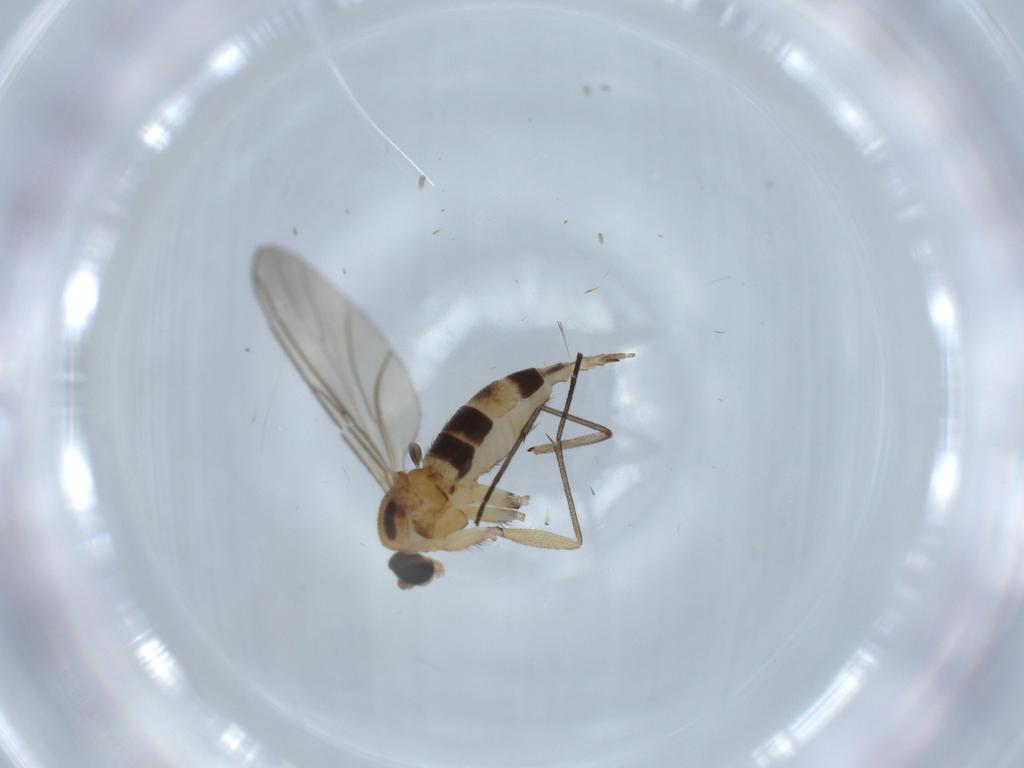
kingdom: Animalia
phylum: Arthropoda
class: Insecta
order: Diptera
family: Sciaridae
